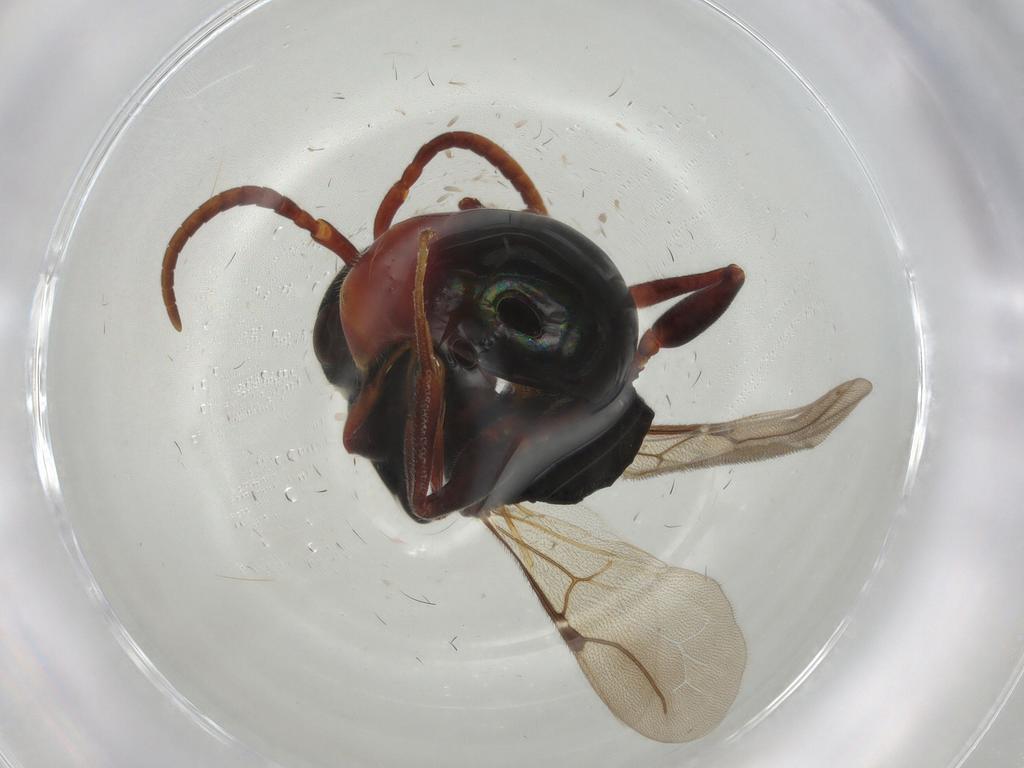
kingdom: Animalia
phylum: Arthropoda
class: Insecta
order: Hymenoptera
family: Bethylidae
